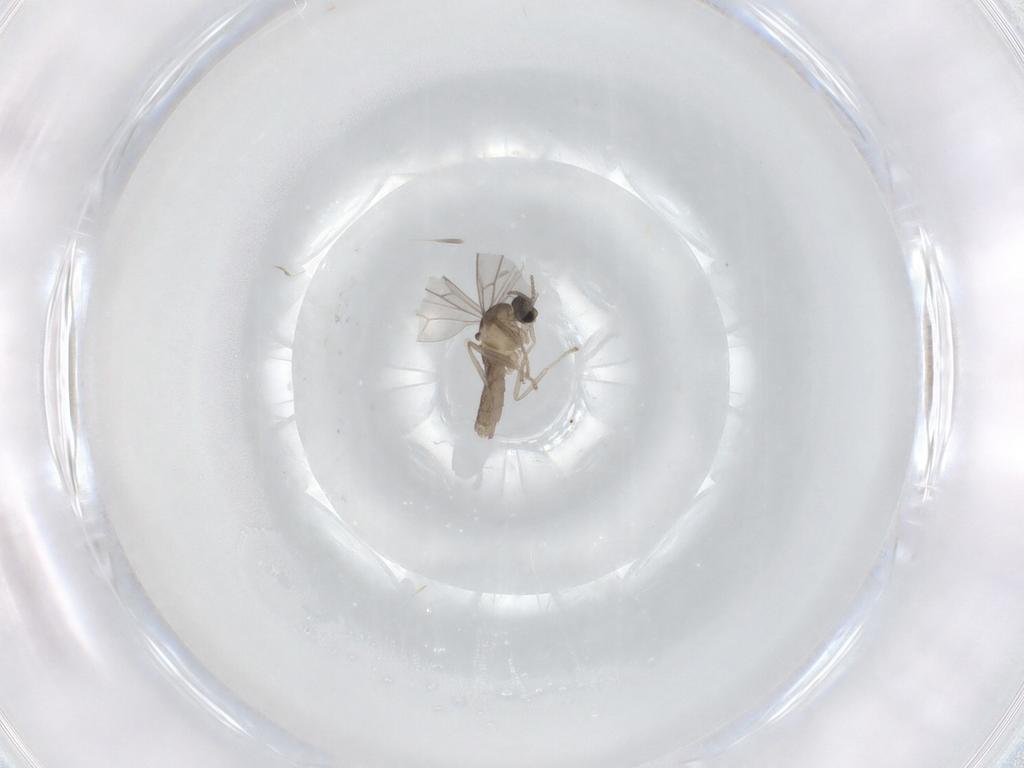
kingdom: Animalia
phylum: Arthropoda
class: Insecta
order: Diptera
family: Cecidomyiidae
